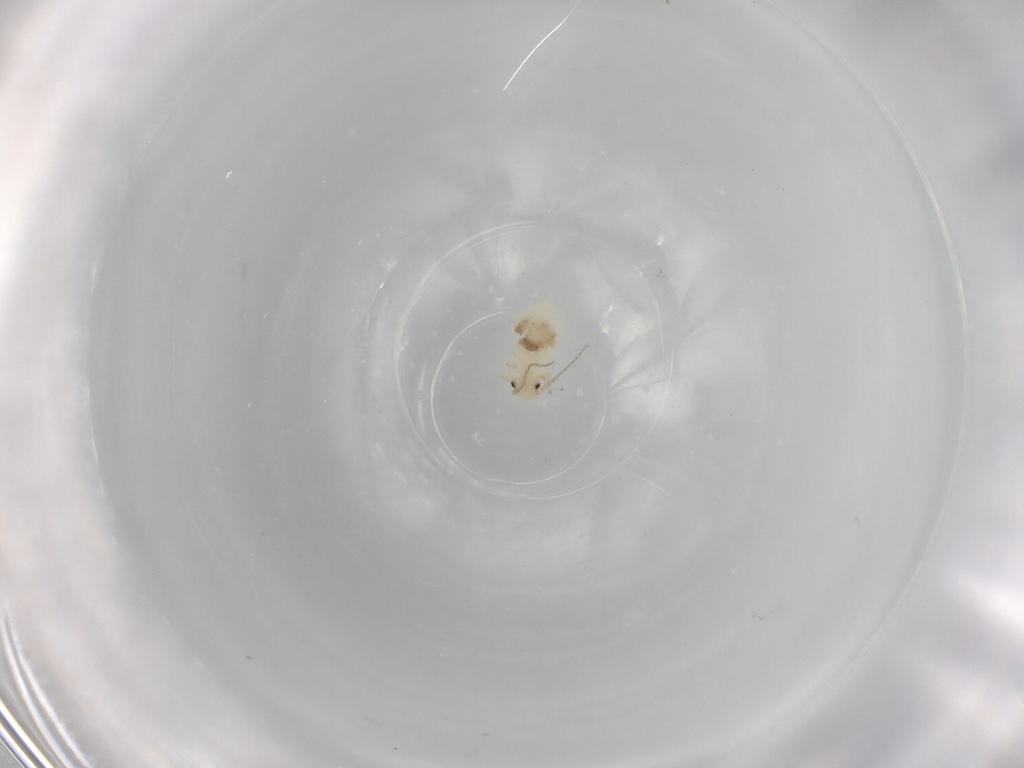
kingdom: Animalia
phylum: Arthropoda
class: Insecta
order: Psocodea
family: Caeciliusidae
